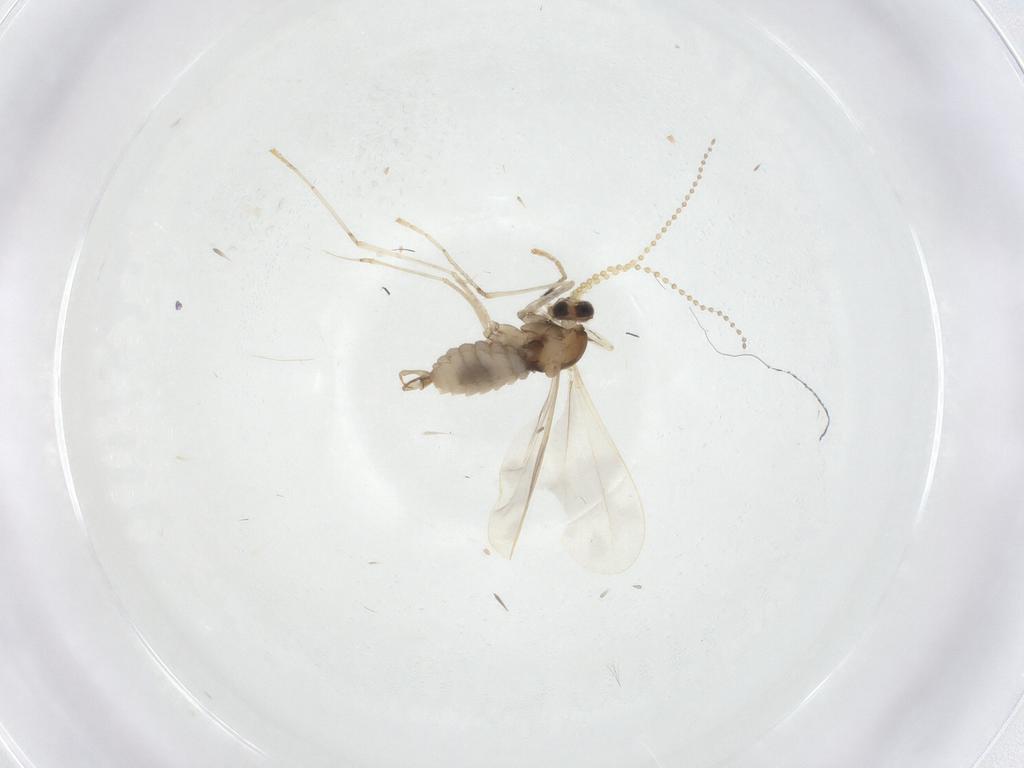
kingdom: Animalia
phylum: Arthropoda
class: Insecta
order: Diptera
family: Cecidomyiidae
